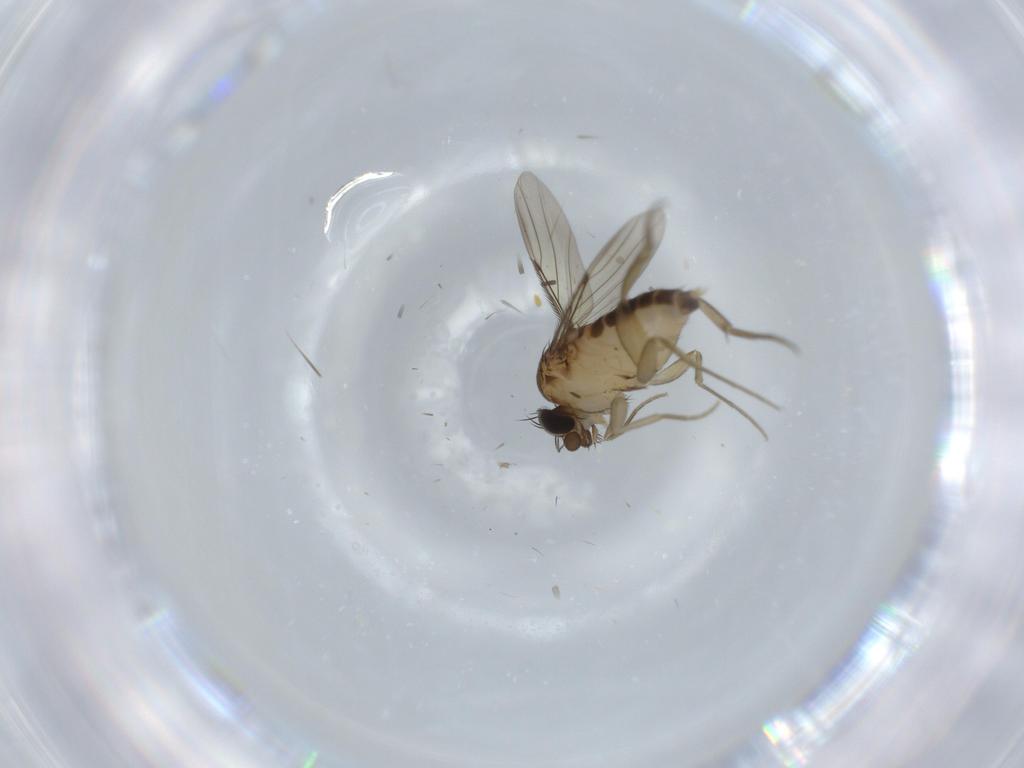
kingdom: Animalia
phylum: Arthropoda
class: Insecta
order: Diptera
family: Phoridae
